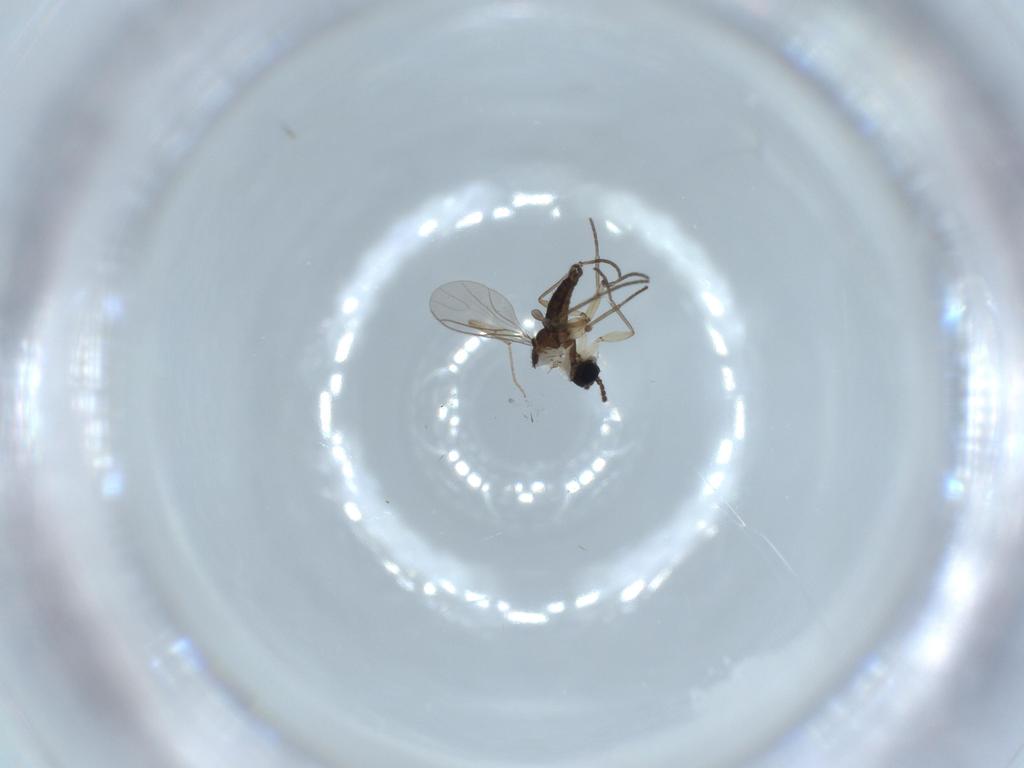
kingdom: Animalia
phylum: Arthropoda
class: Insecta
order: Diptera
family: Sciaridae
